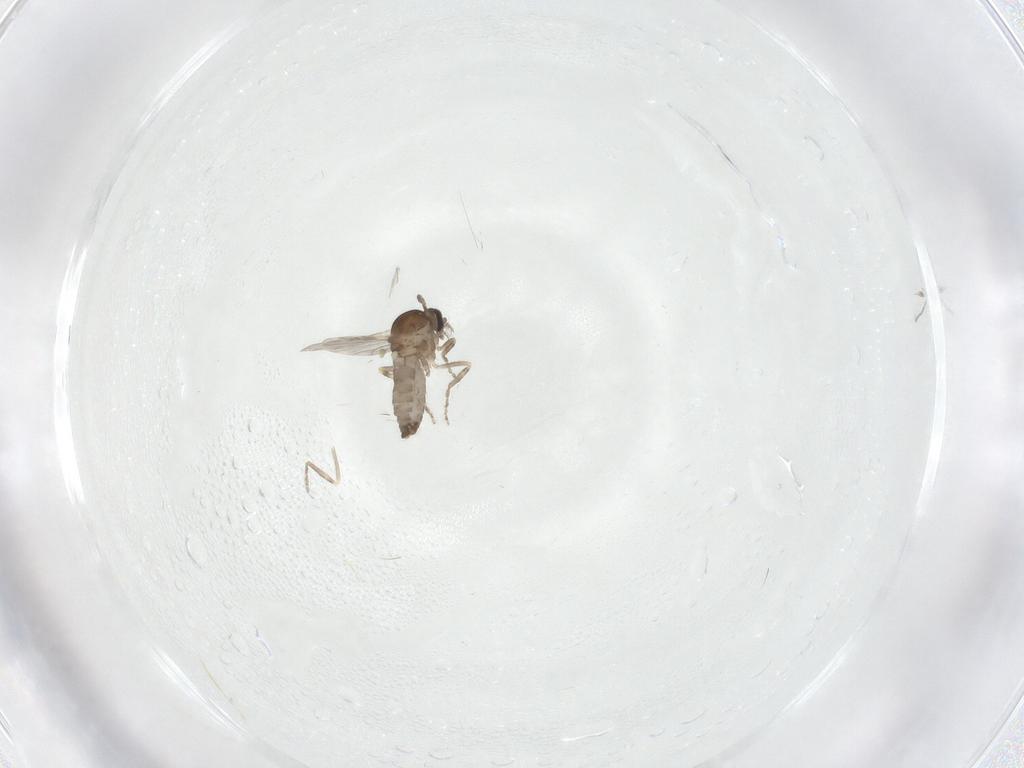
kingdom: Animalia
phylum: Arthropoda
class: Insecta
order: Diptera
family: Ceratopogonidae
